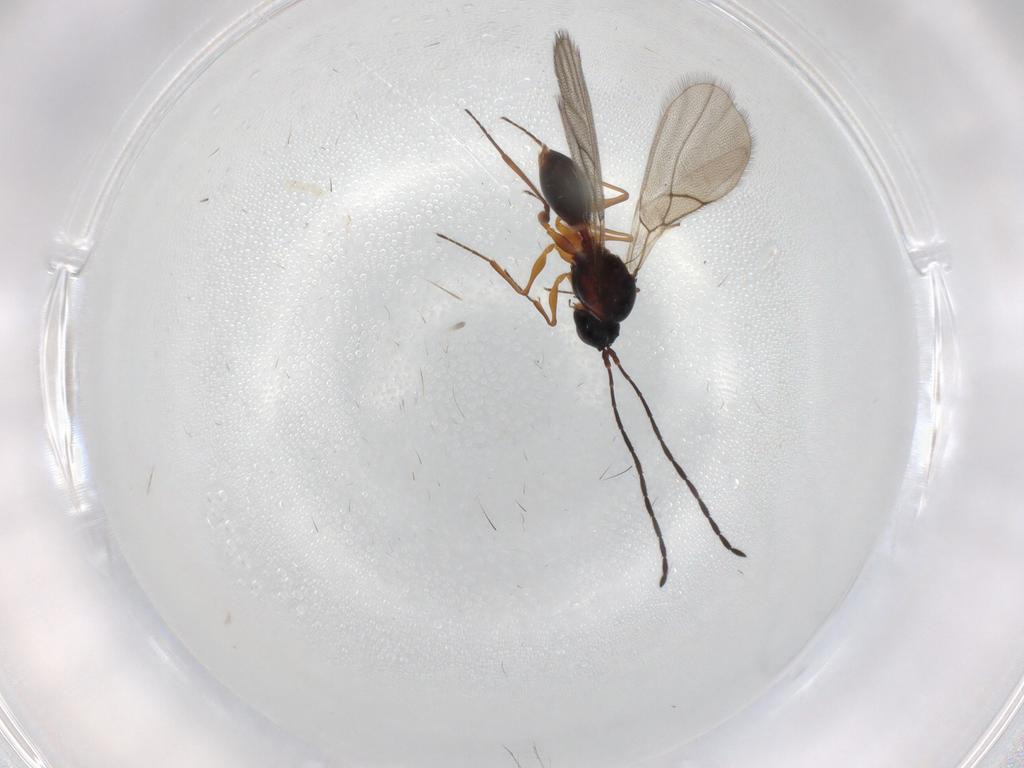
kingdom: Animalia
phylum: Arthropoda
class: Insecta
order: Hymenoptera
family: Figitidae
